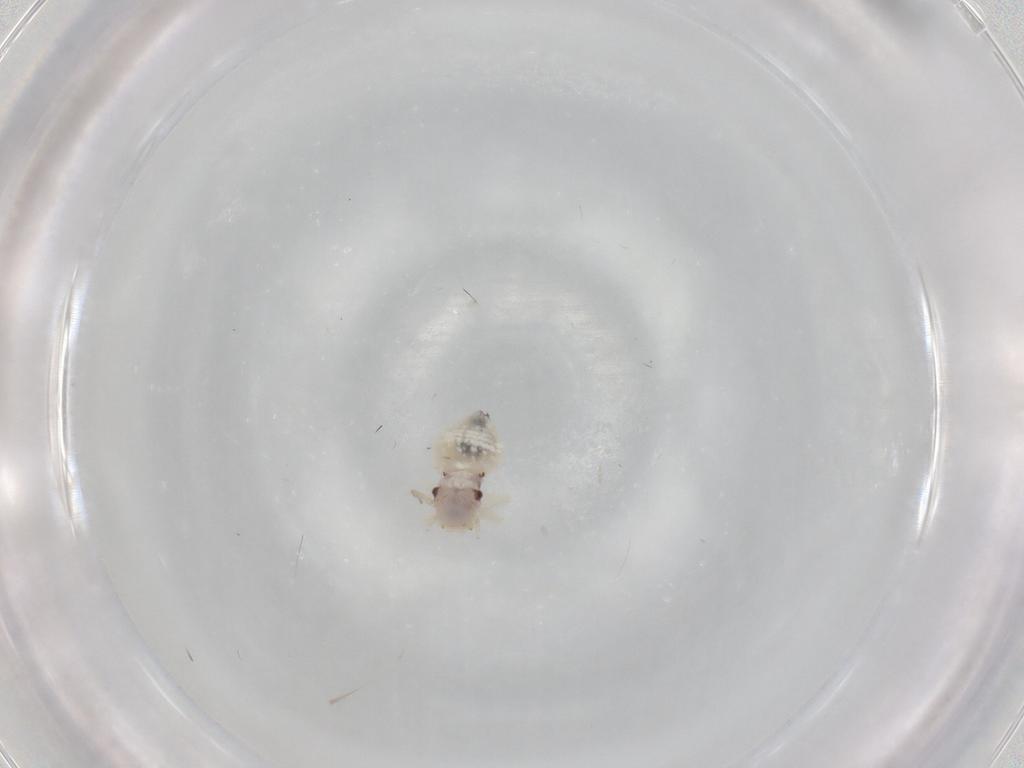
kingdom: Animalia
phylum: Arthropoda
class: Insecta
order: Psocodea
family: Amphipsocidae
